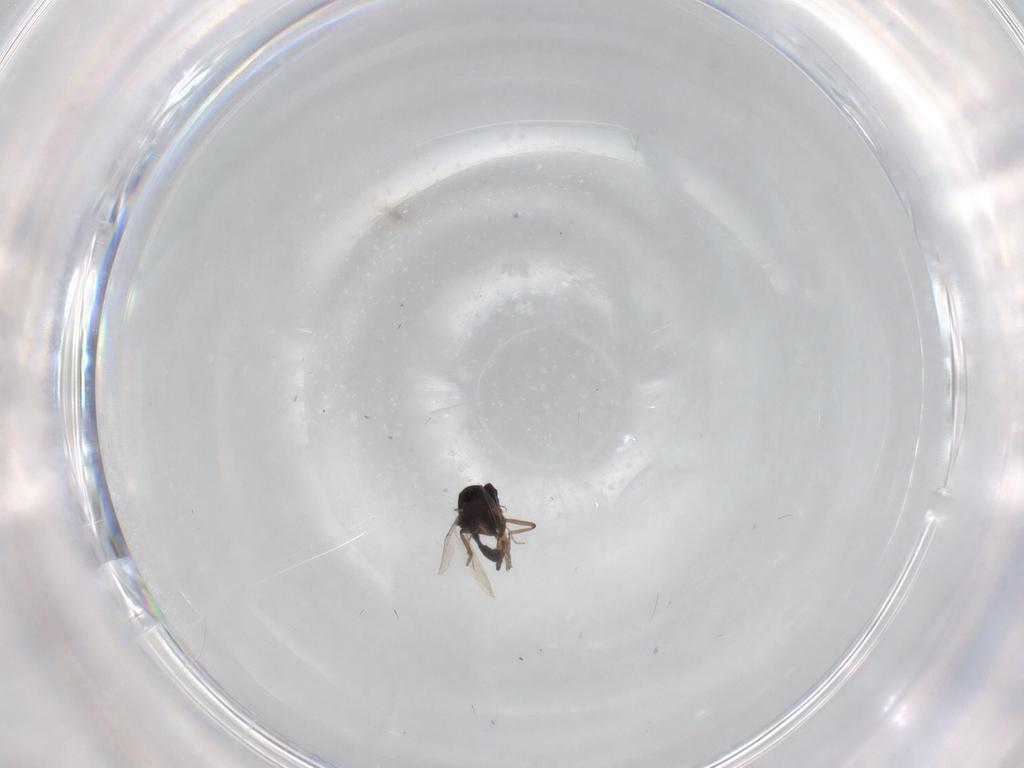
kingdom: Animalia
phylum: Arthropoda
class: Insecta
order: Diptera
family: Ceratopogonidae
